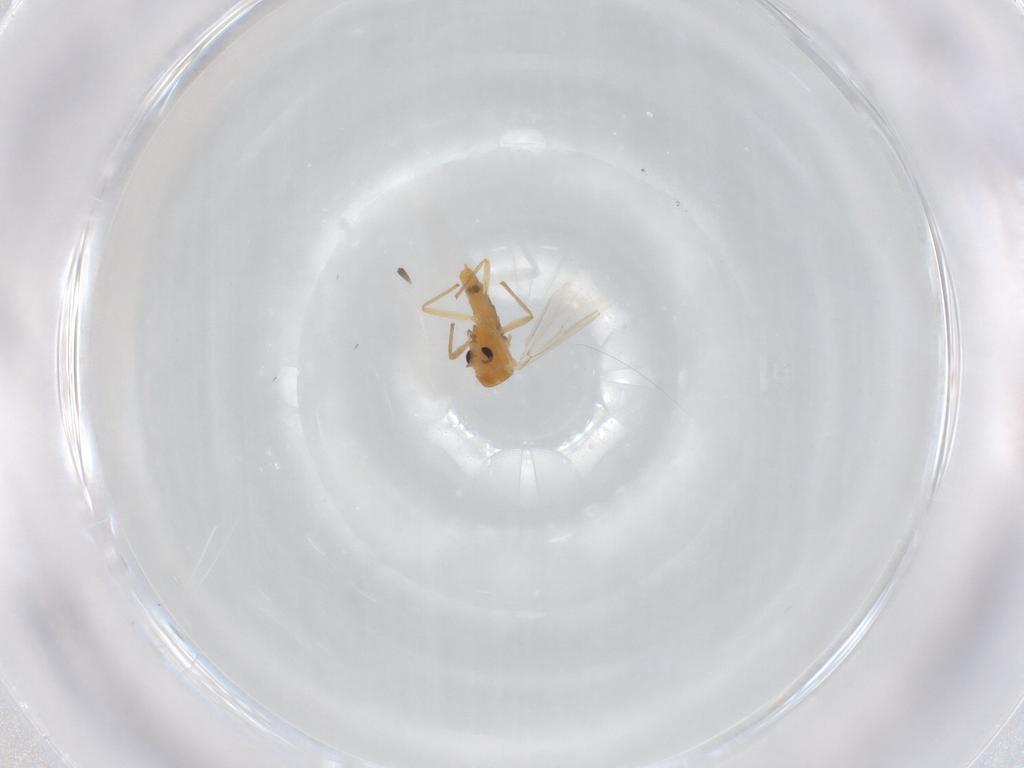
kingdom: Animalia
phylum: Arthropoda
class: Insecta
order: Diptera
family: Chironomidae
